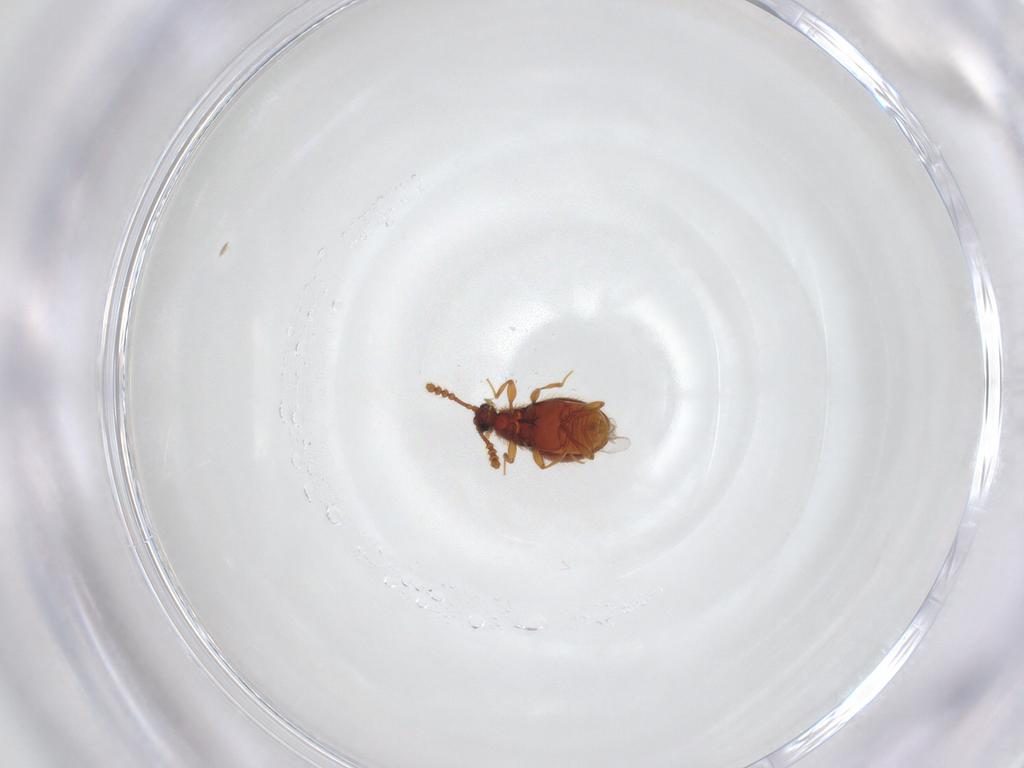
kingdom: Animalia
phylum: Arthropoda
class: Insecta
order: Coleoptera
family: Staphylinidae
